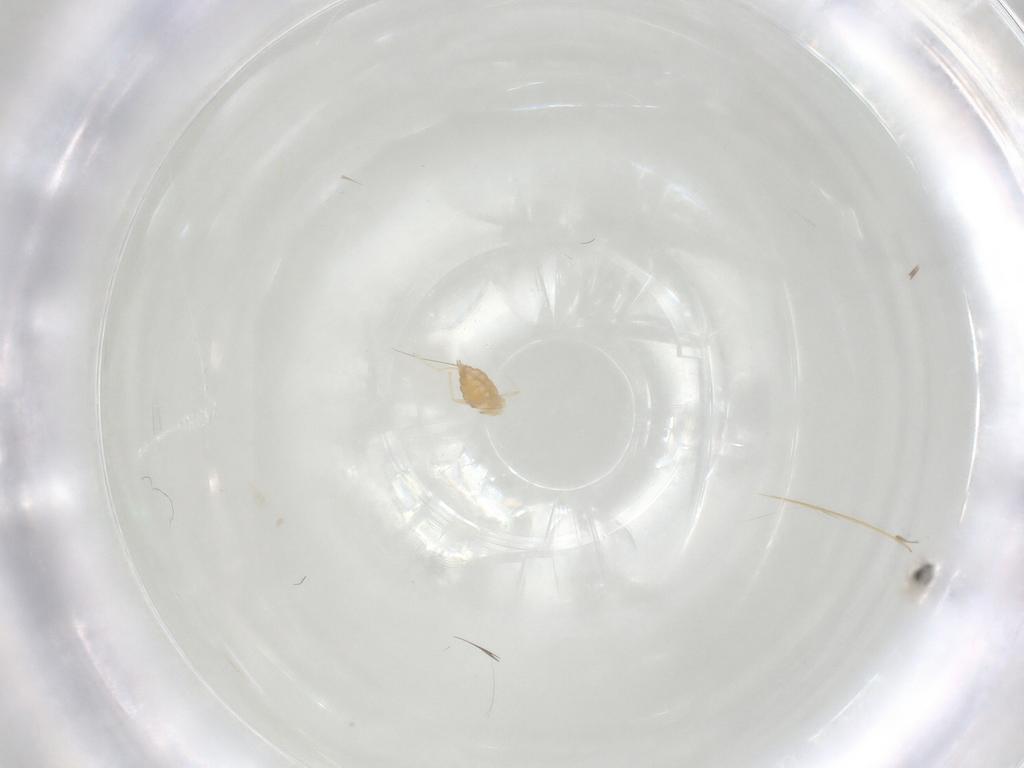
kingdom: Animalia
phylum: Arthropoda
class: Insecta
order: Diptera
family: Cecidomyiidae
